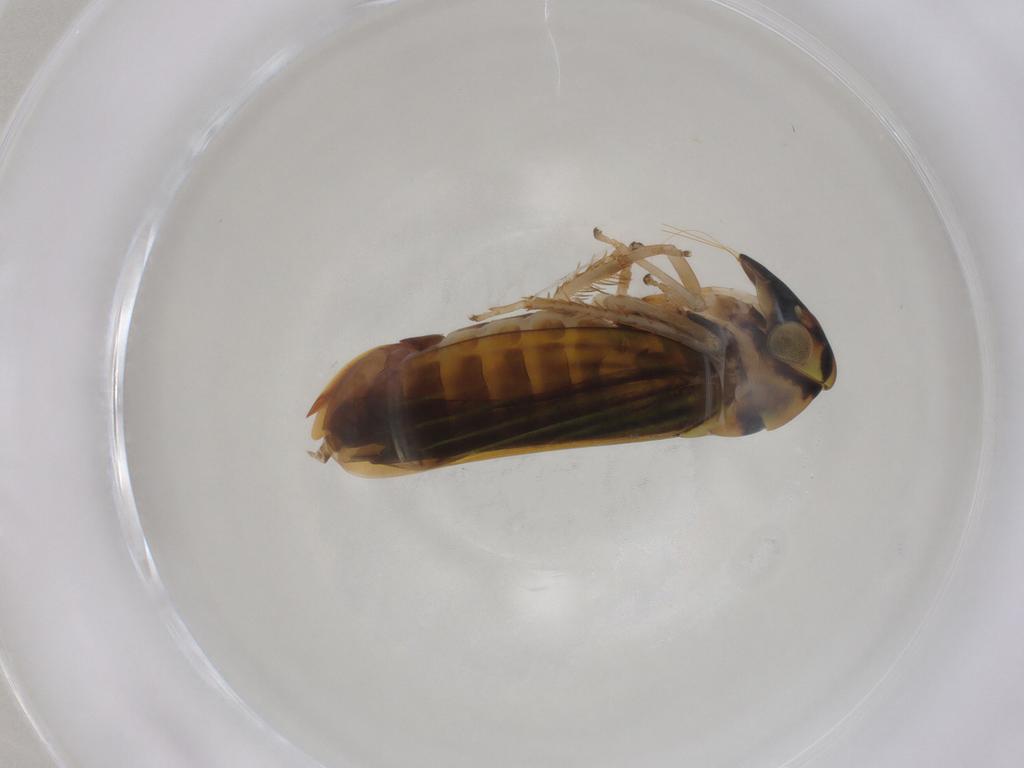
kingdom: Animalia
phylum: Arthropoda
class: Insecta
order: Hemiptera
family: Cicadellidae
